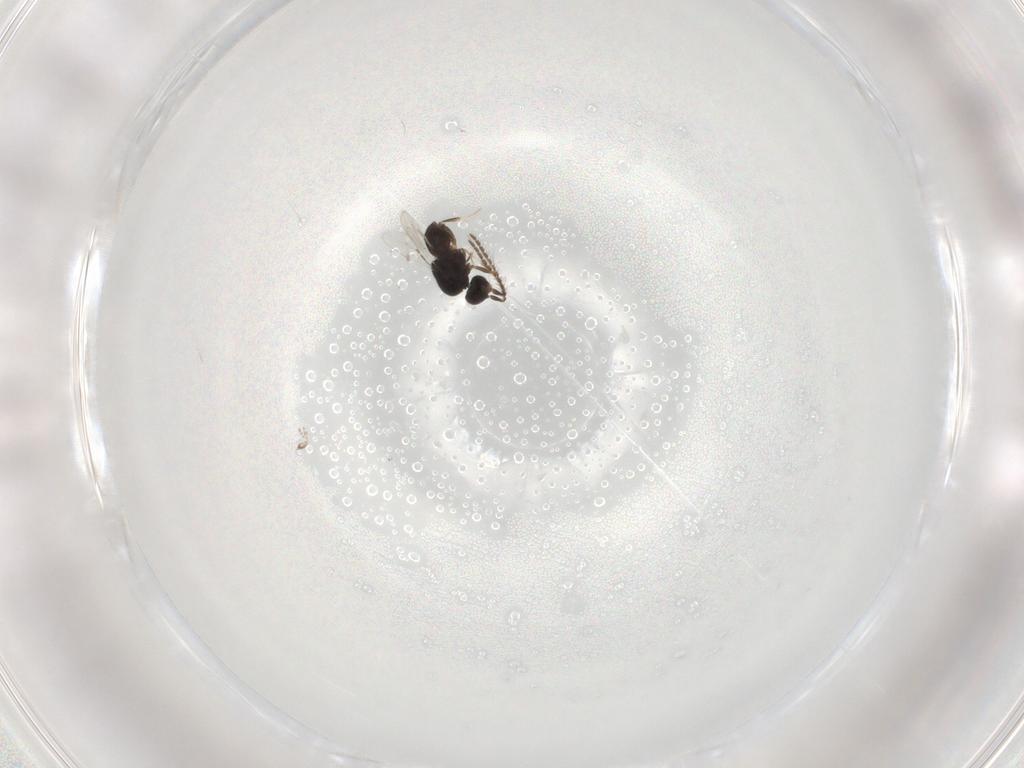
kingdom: Animalia
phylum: Arthropoda
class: Insecta
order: Hymenoptera
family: Ceraphronidae
